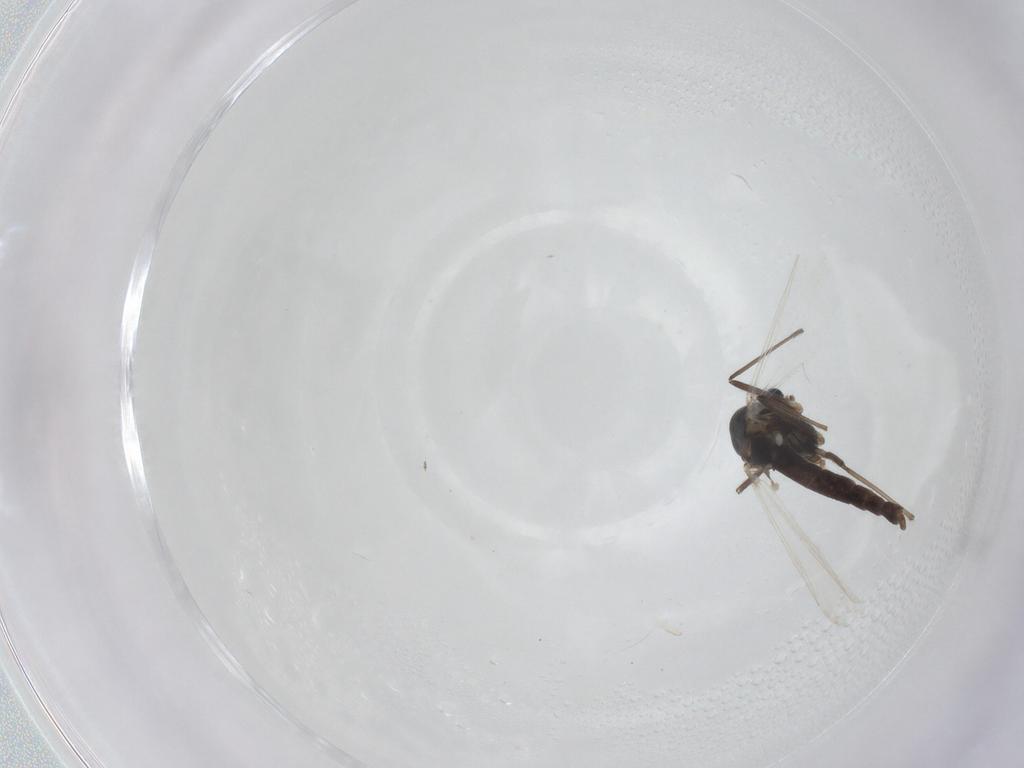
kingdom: Animalia
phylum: Arthropoda
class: Insecta
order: Diptera
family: Chironomidae
